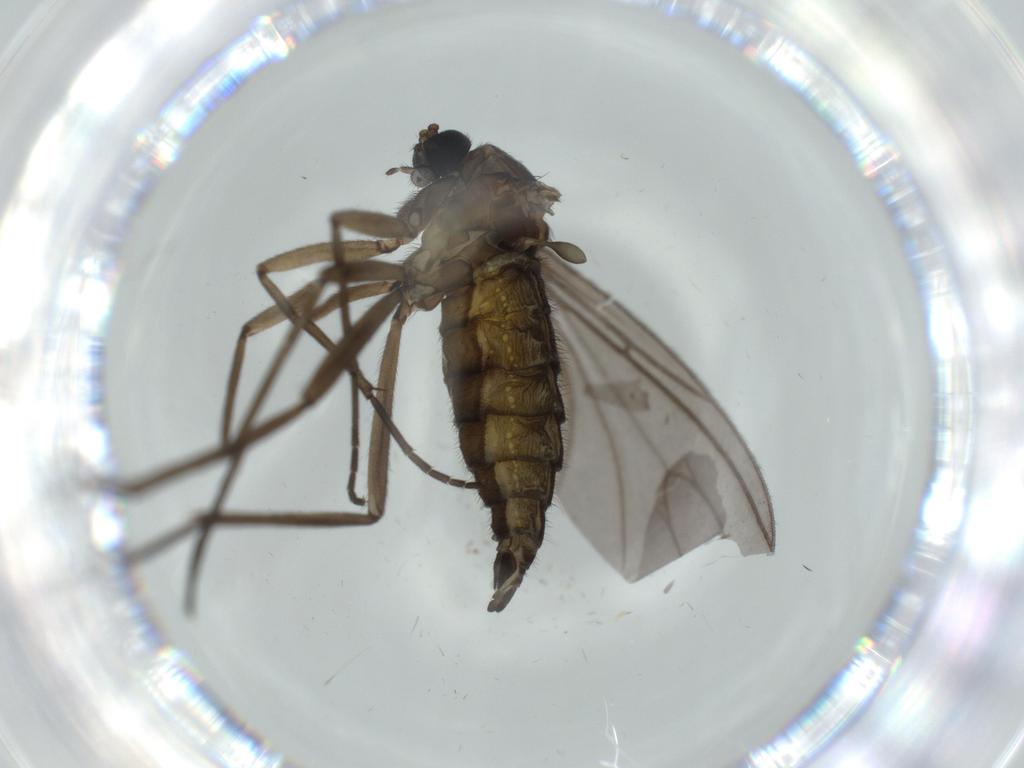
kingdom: Animalia
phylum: Arthropoda
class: Insecta
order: Diptera
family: Sciaridae
